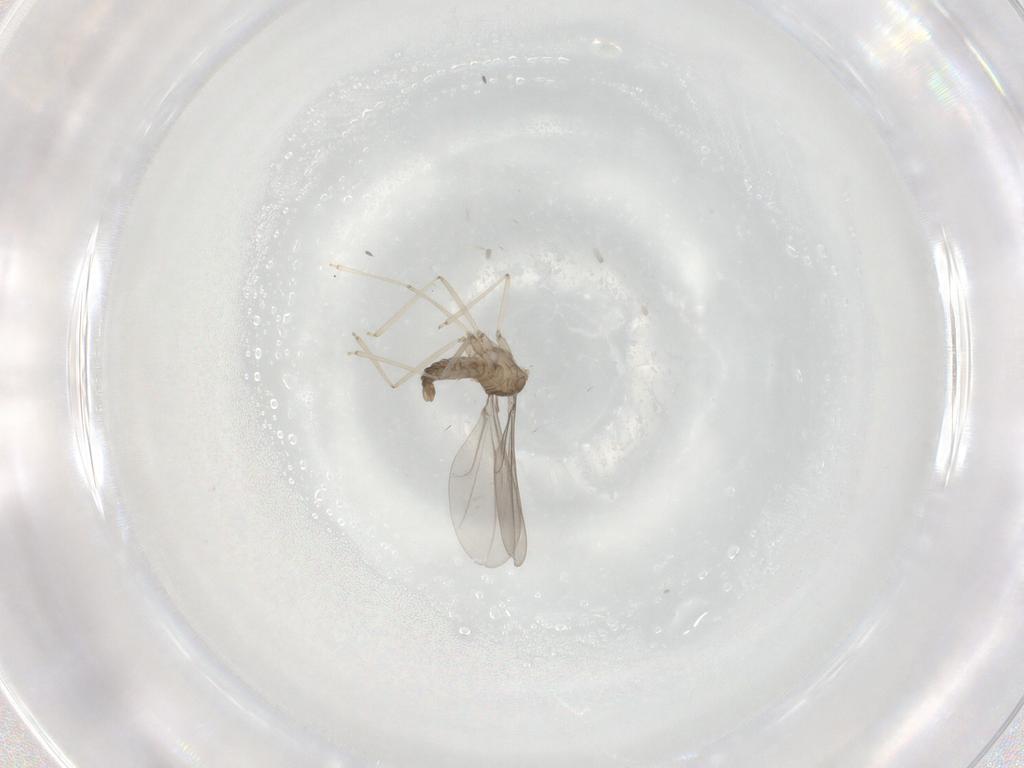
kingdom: Animalia
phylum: Arthropoda
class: Insecta
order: Diptera
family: Cecidomyiidae
